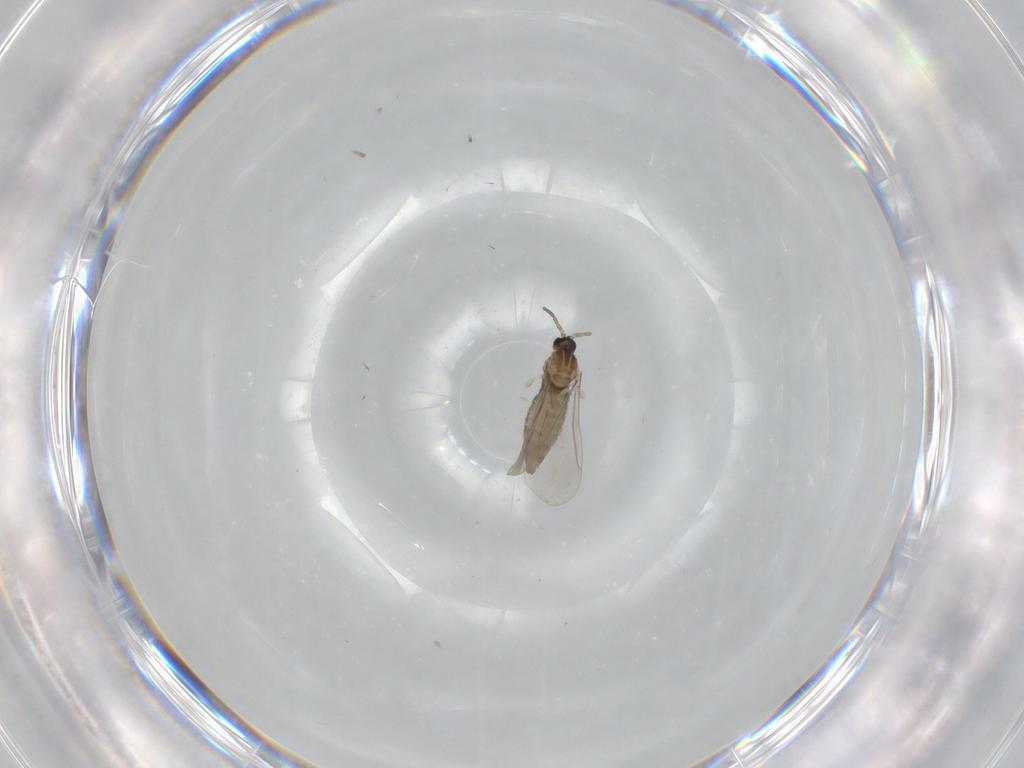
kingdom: Animalia
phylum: Arthropoda
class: Insecta
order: Diptera
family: Cecidomyiidae
